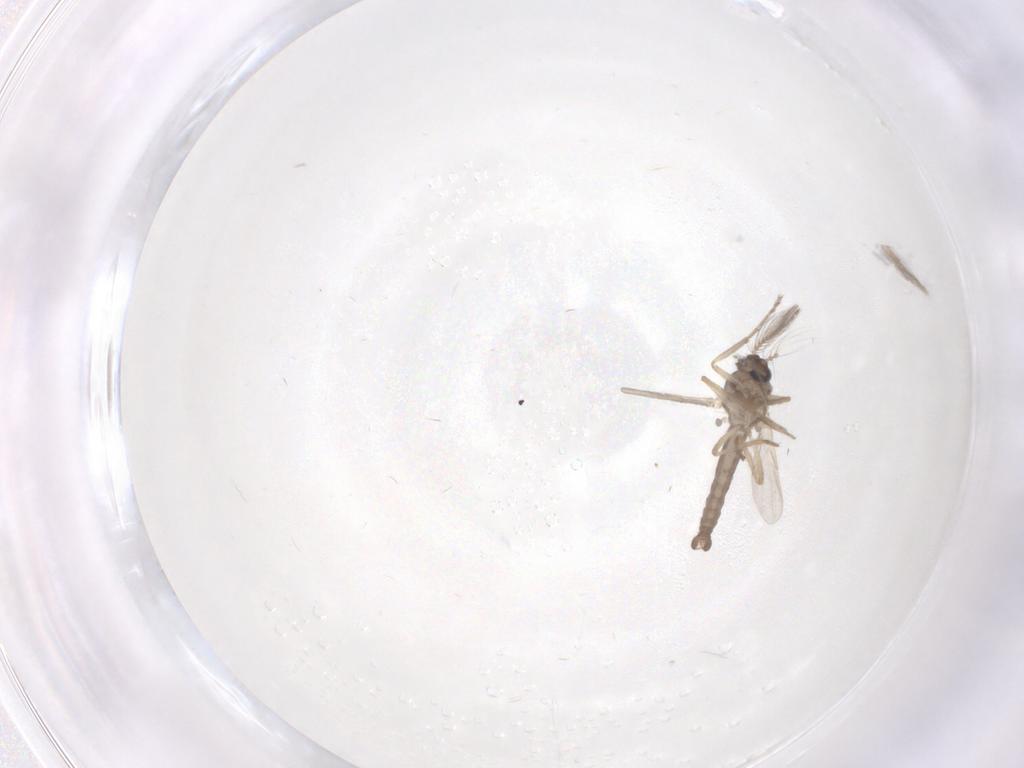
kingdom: Animalia
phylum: Arthropoda
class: Insecta
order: Diptera
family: Ceratopogonidae
